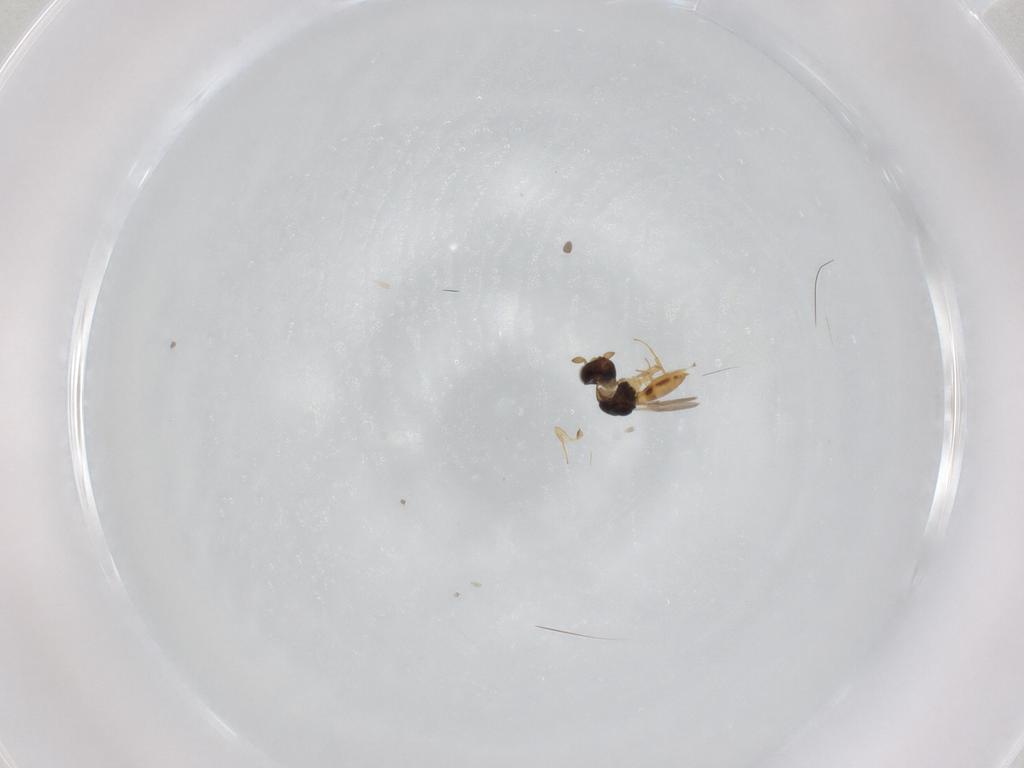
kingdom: Animalia
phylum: Arthropoda
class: Insecta
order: Hymenoptera
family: Scelionidae
